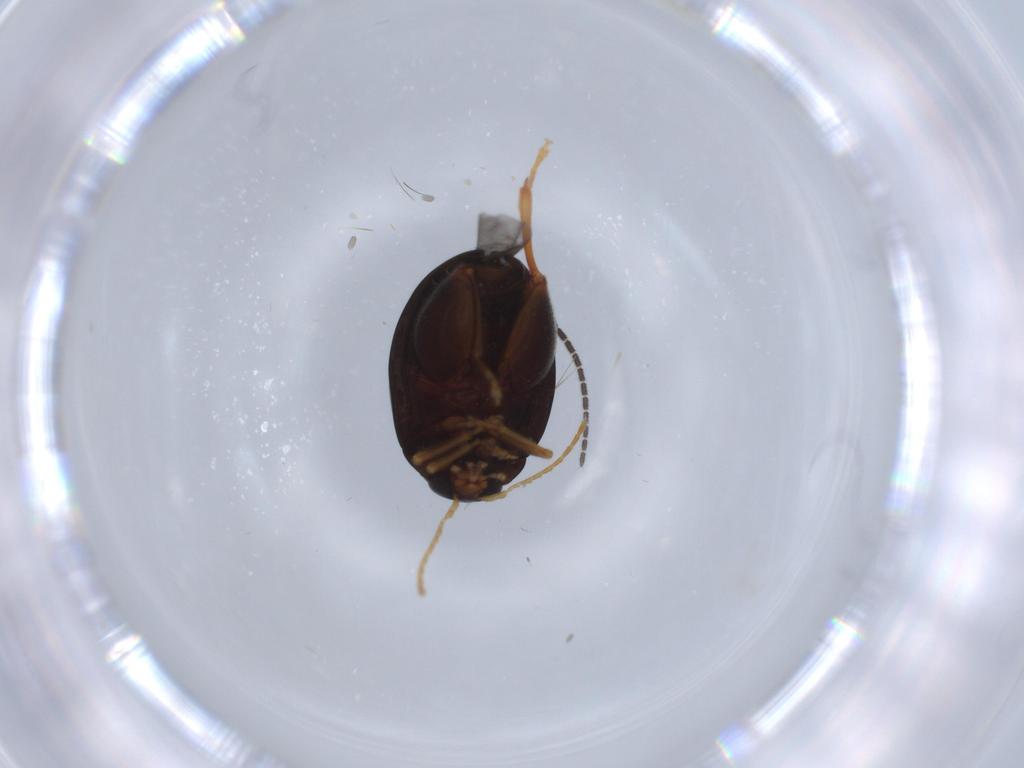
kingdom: Animalia
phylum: Arthropoda
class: Insecta
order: Coleoptera
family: Chrysomelidae
